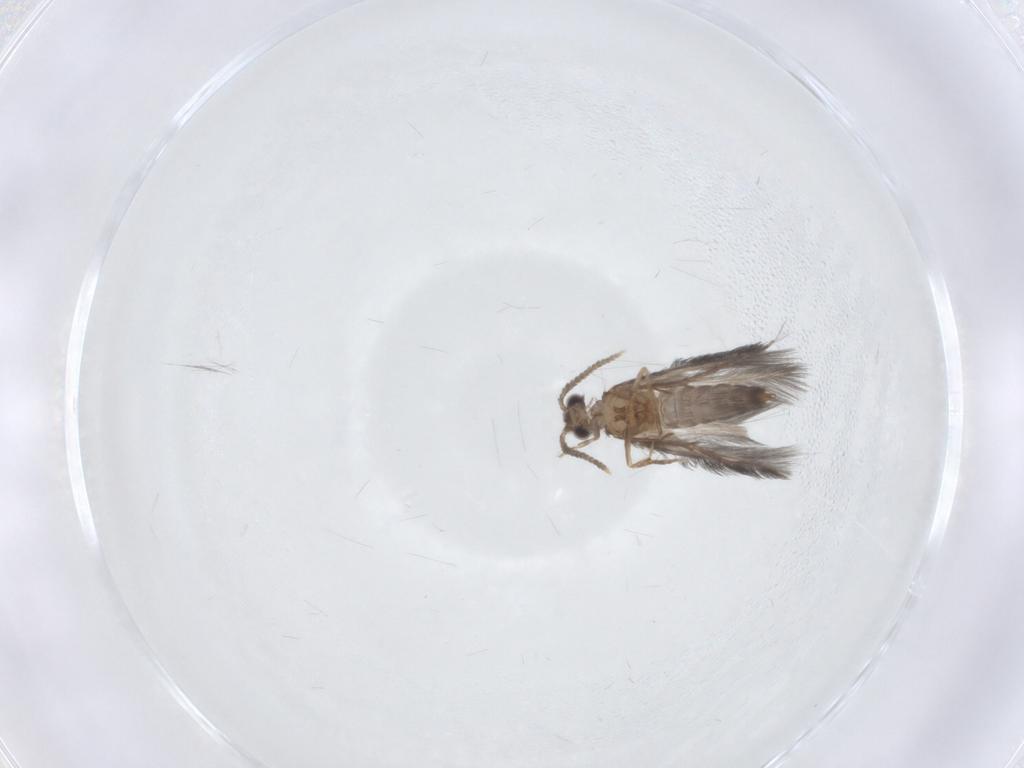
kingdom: Animalia
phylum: Arthropoda
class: Insecta
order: Trichoptera
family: Hydroptilidae
